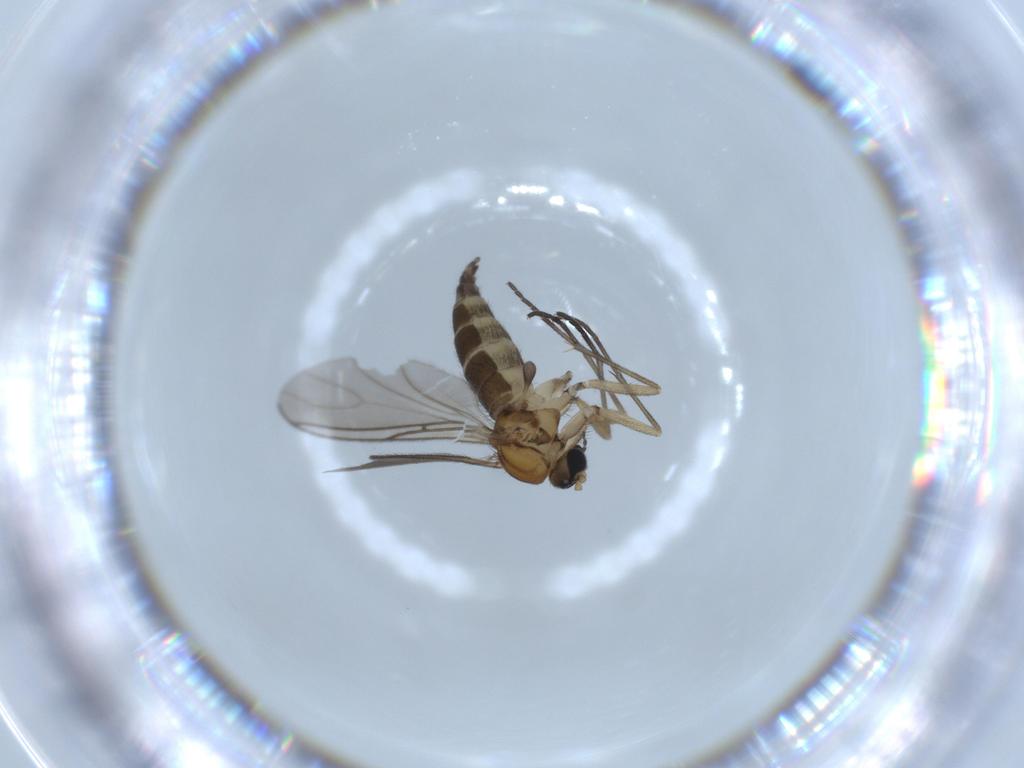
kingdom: Animalia
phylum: Arthropoda
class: Insecta
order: Diptera
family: Sciaridae
